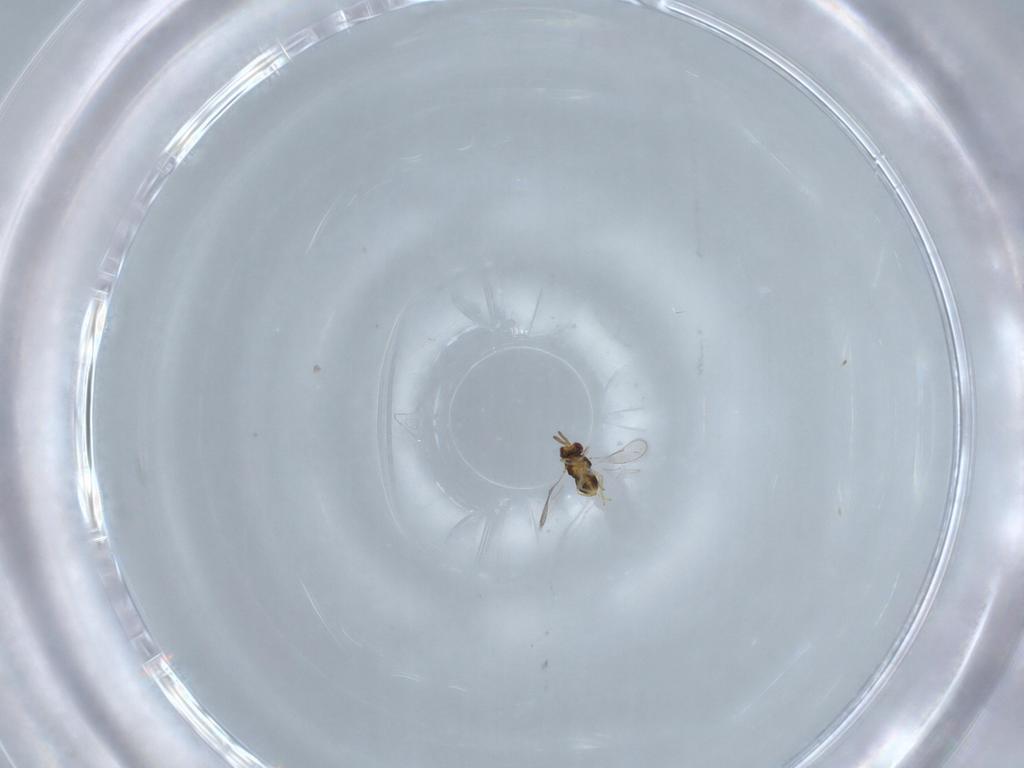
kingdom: Animalia
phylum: Arthropoda
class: Insecta
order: Hymenoptera
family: Aphelinidae
